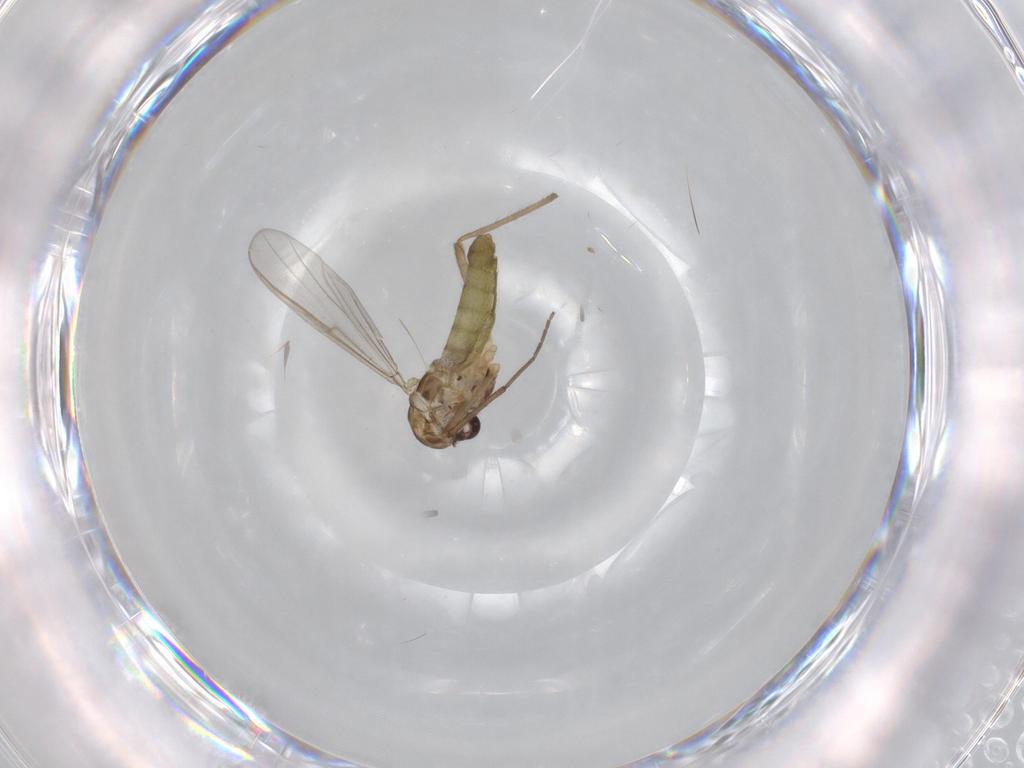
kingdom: Animalia
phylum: Arthropoda
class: Insecta
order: Diptera
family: Chironomidae
